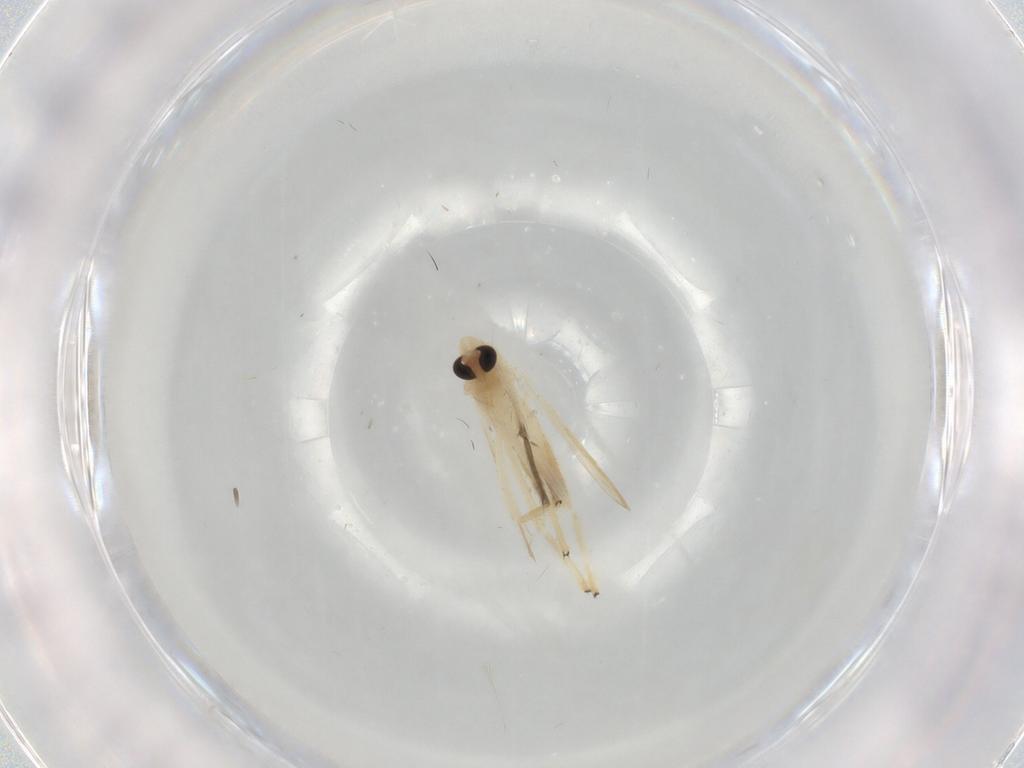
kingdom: Animalia
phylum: Arthropoda
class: Insecta
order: Diptera
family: Chironomidae
